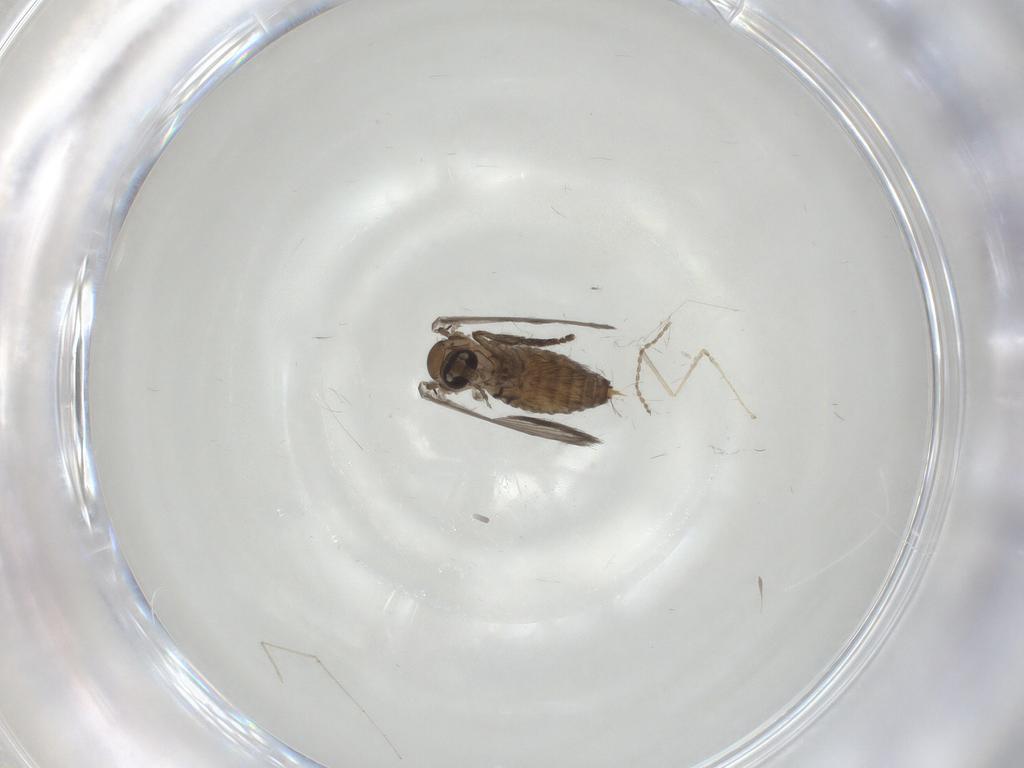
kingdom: Animalia
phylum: Arthropoda
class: Insecta
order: Diptera
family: Psychodidae
